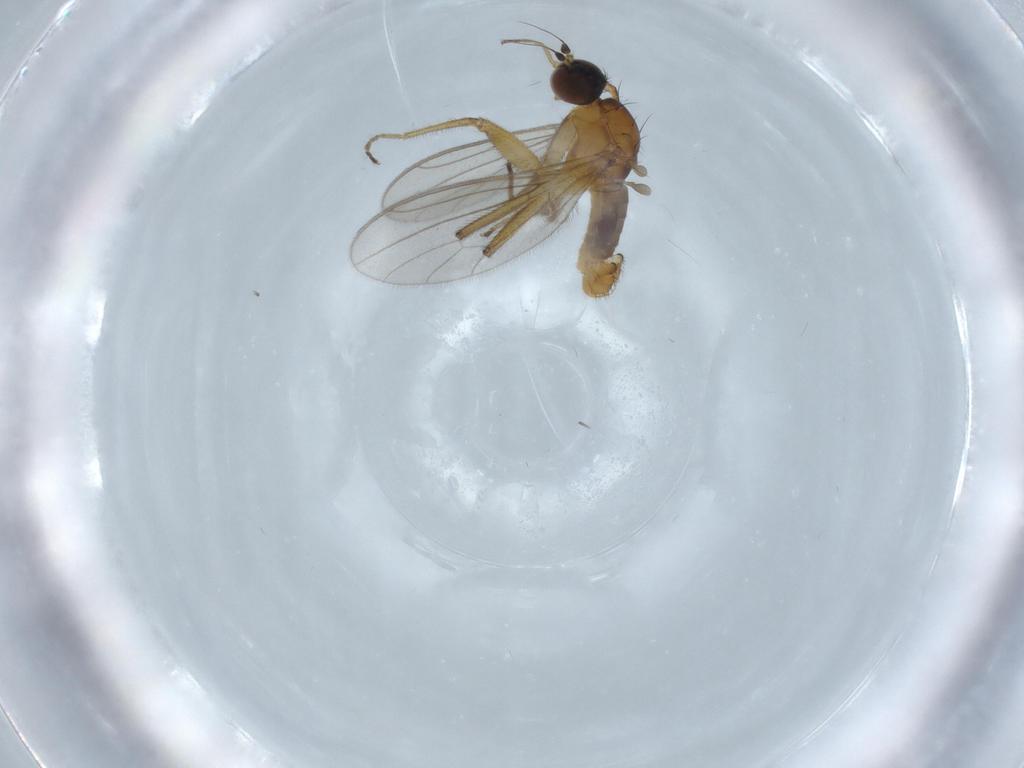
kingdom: Animalia
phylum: Arthropoda
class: Insecta
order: Diptera
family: Empididae
